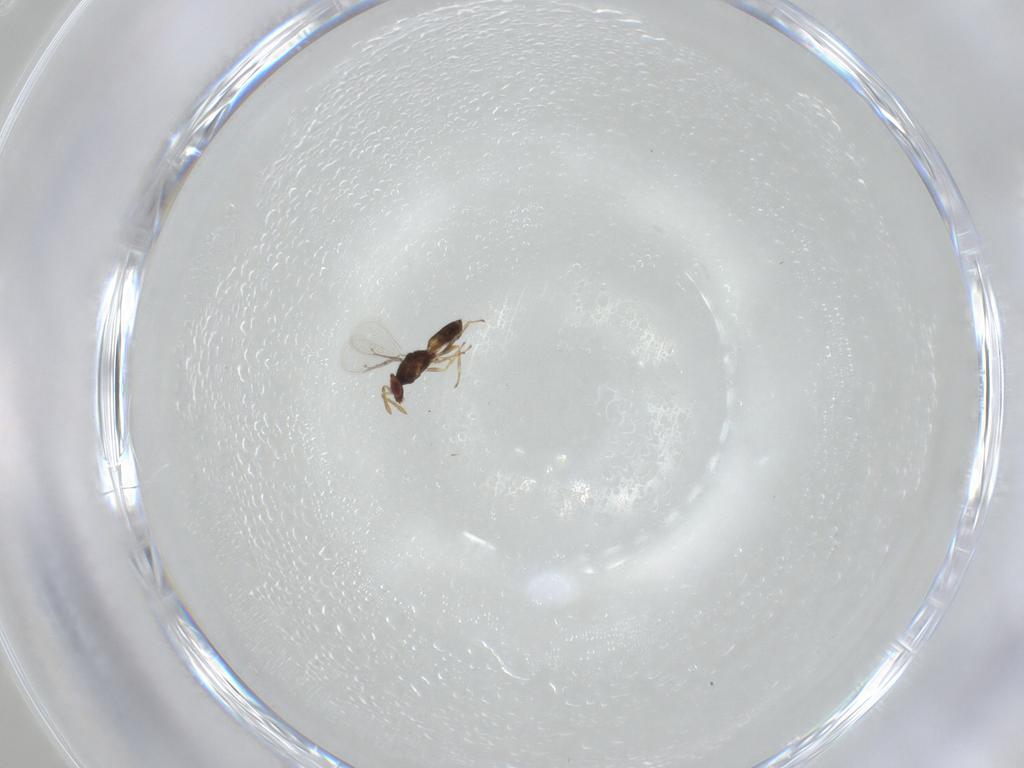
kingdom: Animalia
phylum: Arthropoda
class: Insecta
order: Hymenoptera
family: Eulophidae
